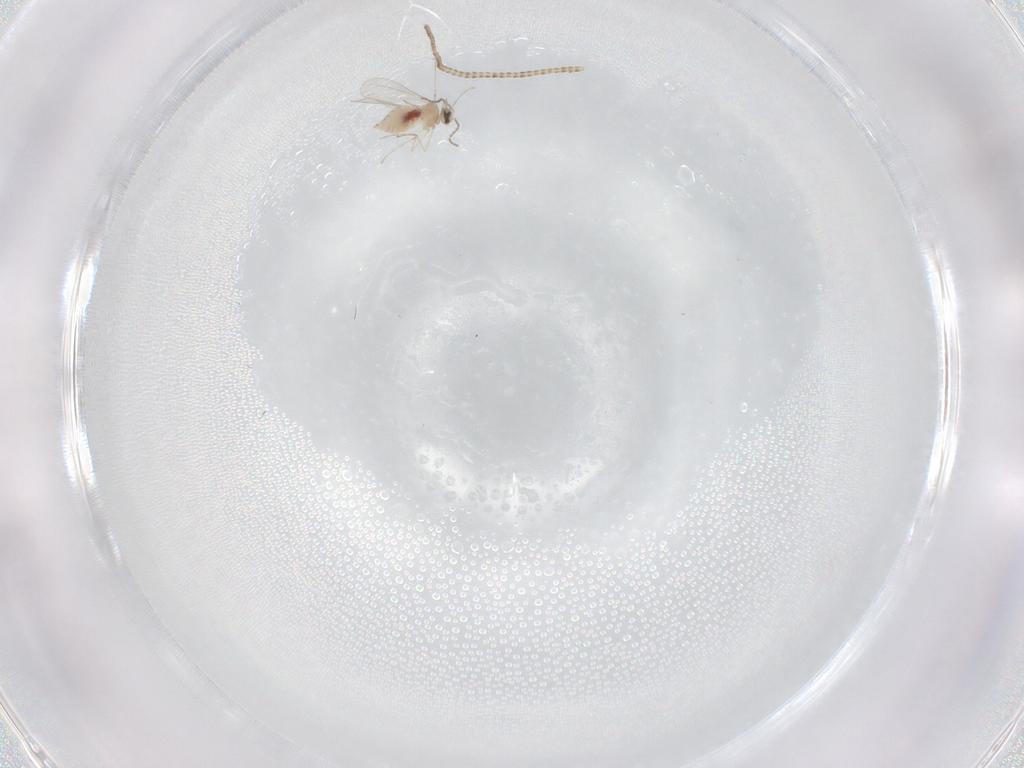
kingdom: Animalia
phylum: Arthropoda
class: Insecta
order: Diptera
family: Cecidomyiidae
